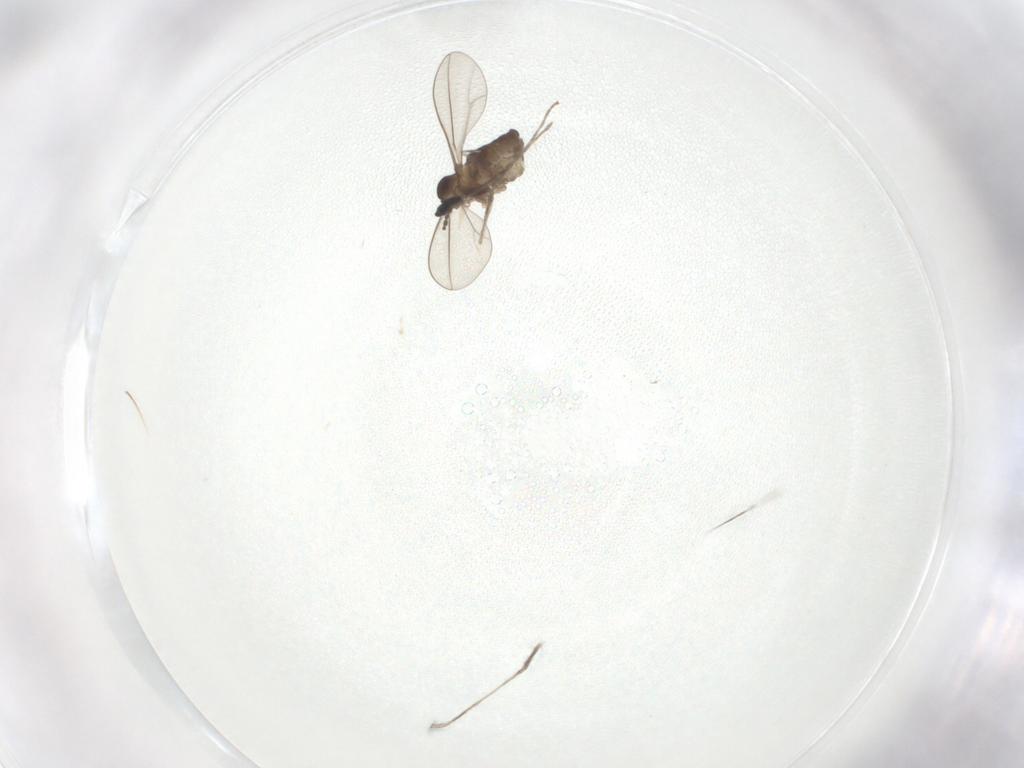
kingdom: Animalia
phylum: Arthropoda
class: Insecta
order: Diptera
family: Cecidomyiidae
